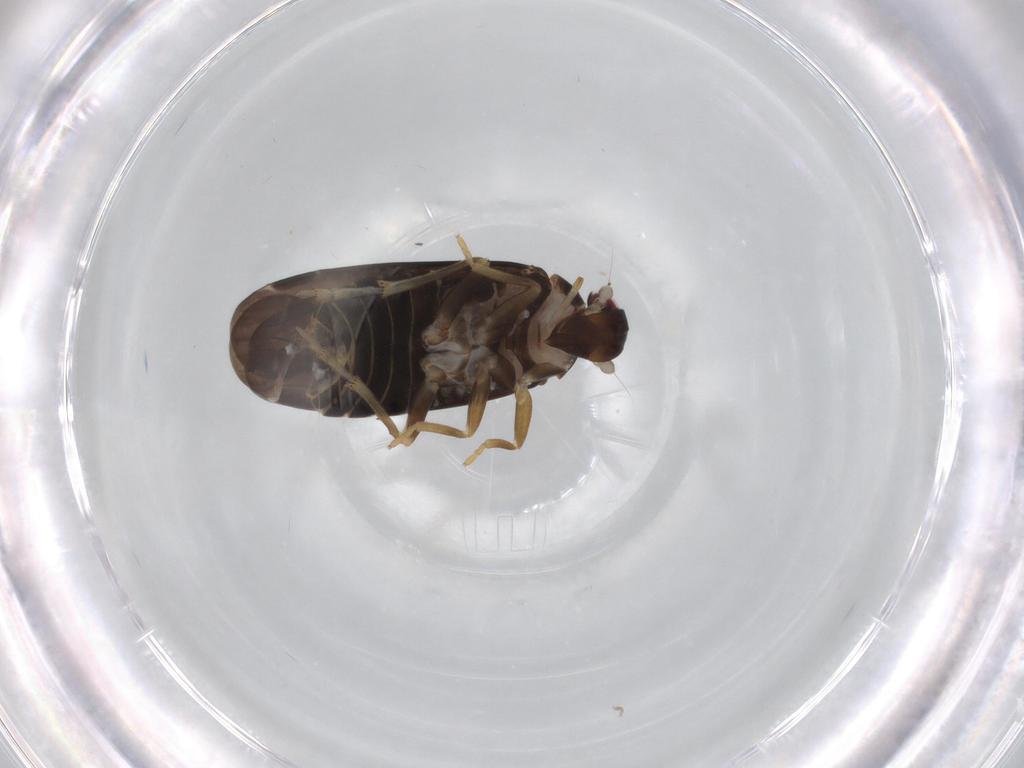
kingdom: Animalia
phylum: Arthropoda
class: Insecta
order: Hemiptera
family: Achilidae
